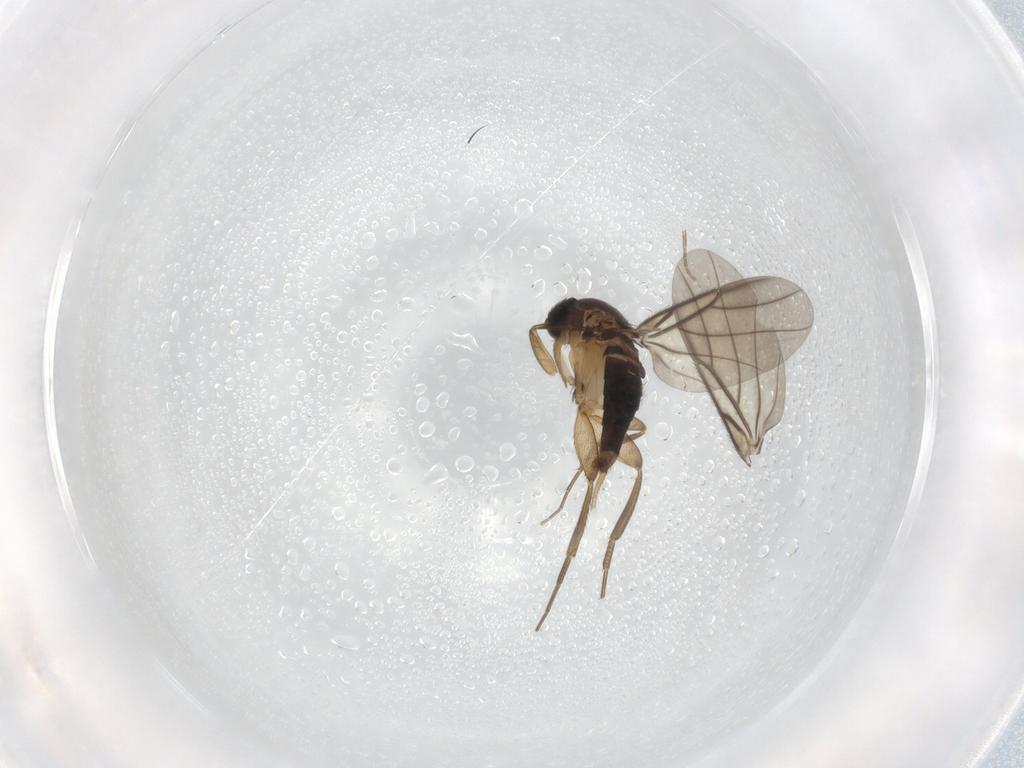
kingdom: Animalia
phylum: Arthropoda
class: Insecta
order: Diptera
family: Phoridae
